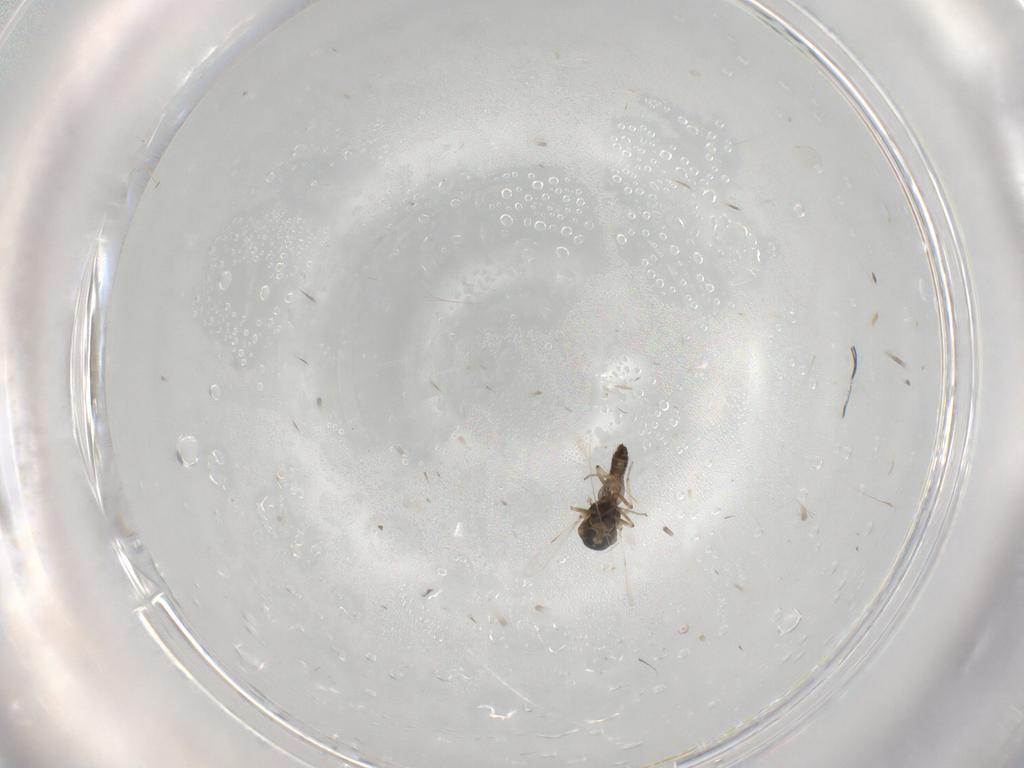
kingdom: Animalia
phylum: Arthropoda
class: Insecta
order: Diptera
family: Ceratopogonidae
